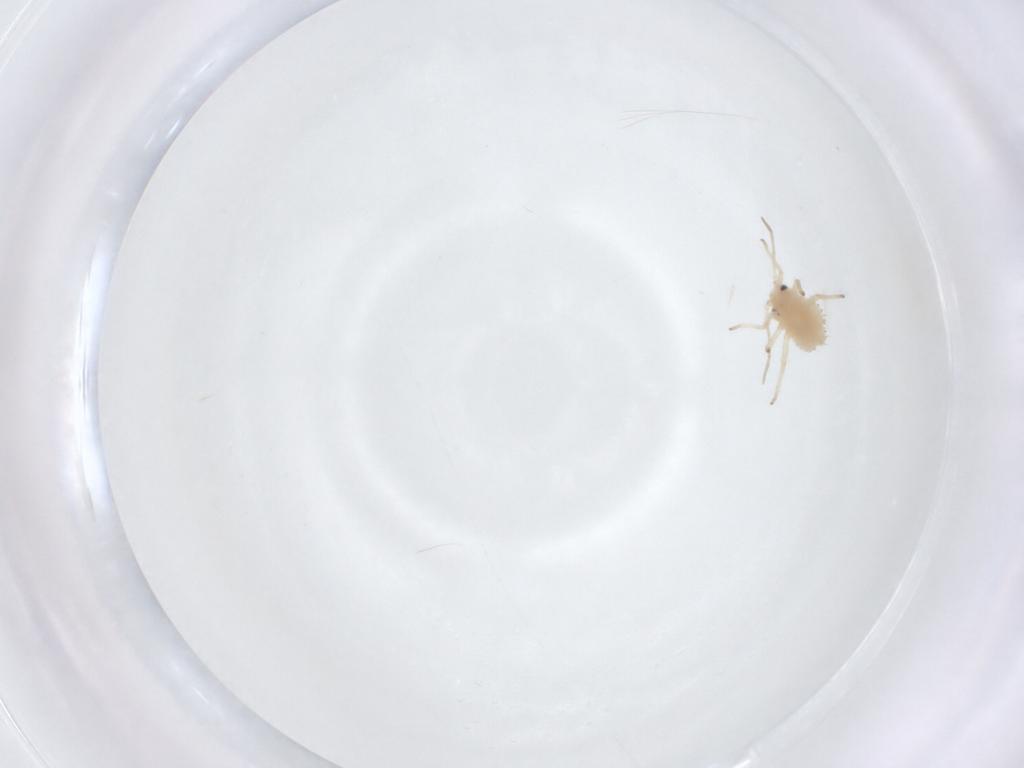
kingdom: Animalia
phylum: Arthropoda
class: Insecta
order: Hemiptera
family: Aphididae
